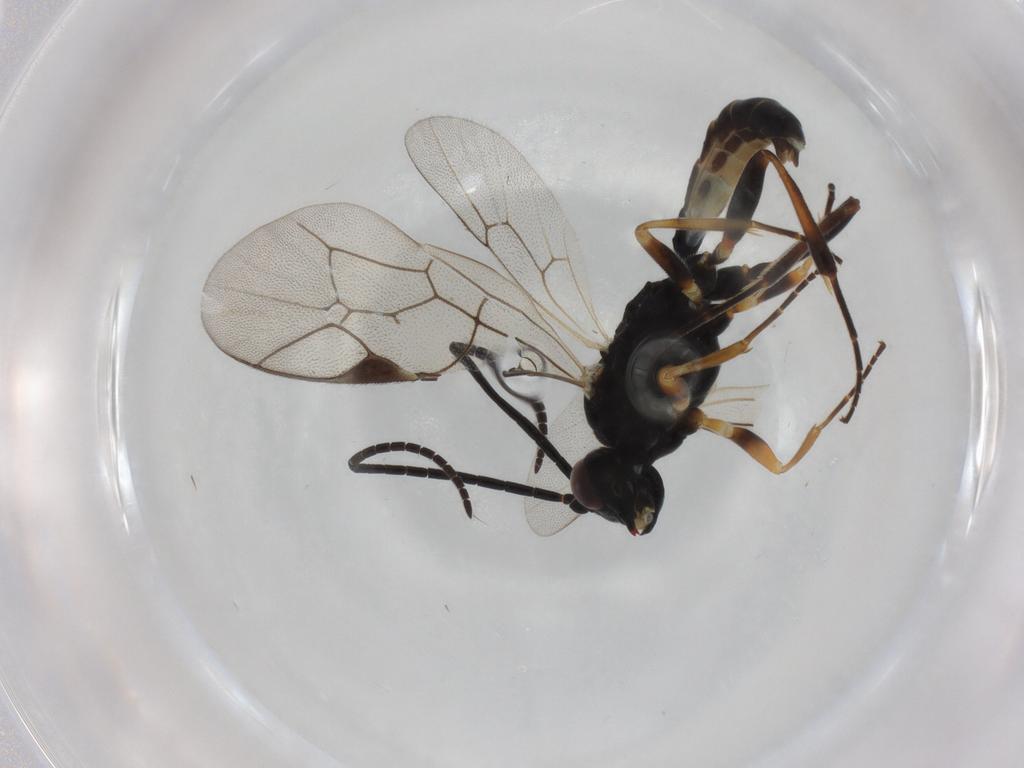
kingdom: Animalia
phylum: Arthropoda
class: Insecta
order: Hymenoptera
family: Ichneumonidae
